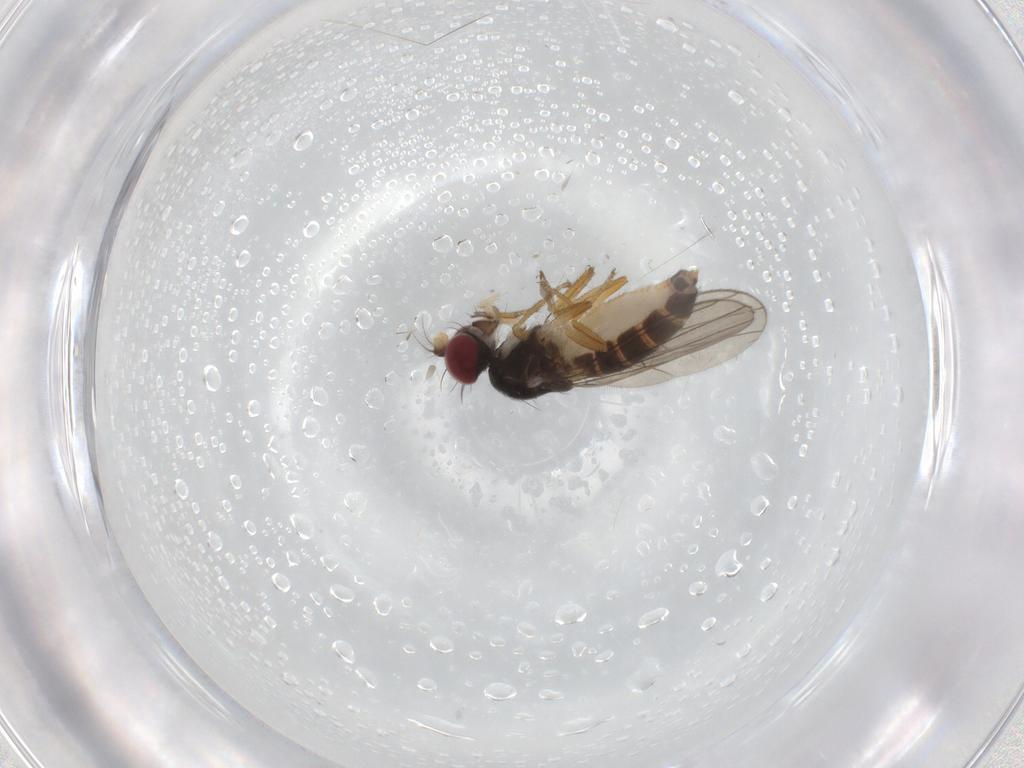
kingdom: Animalia
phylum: Arthropoda
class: Insecta
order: Diptera
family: Anthomyzidae
